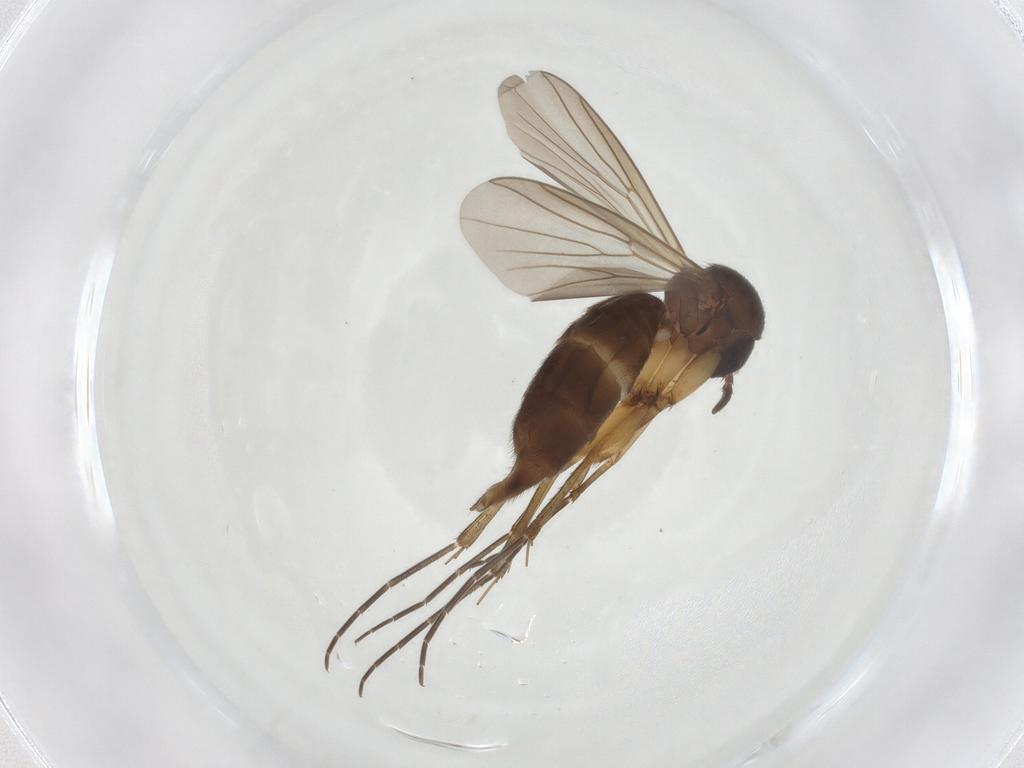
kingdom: Animalia
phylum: Arthropoda
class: Insecta
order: Diptera
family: Mycetophilidae
